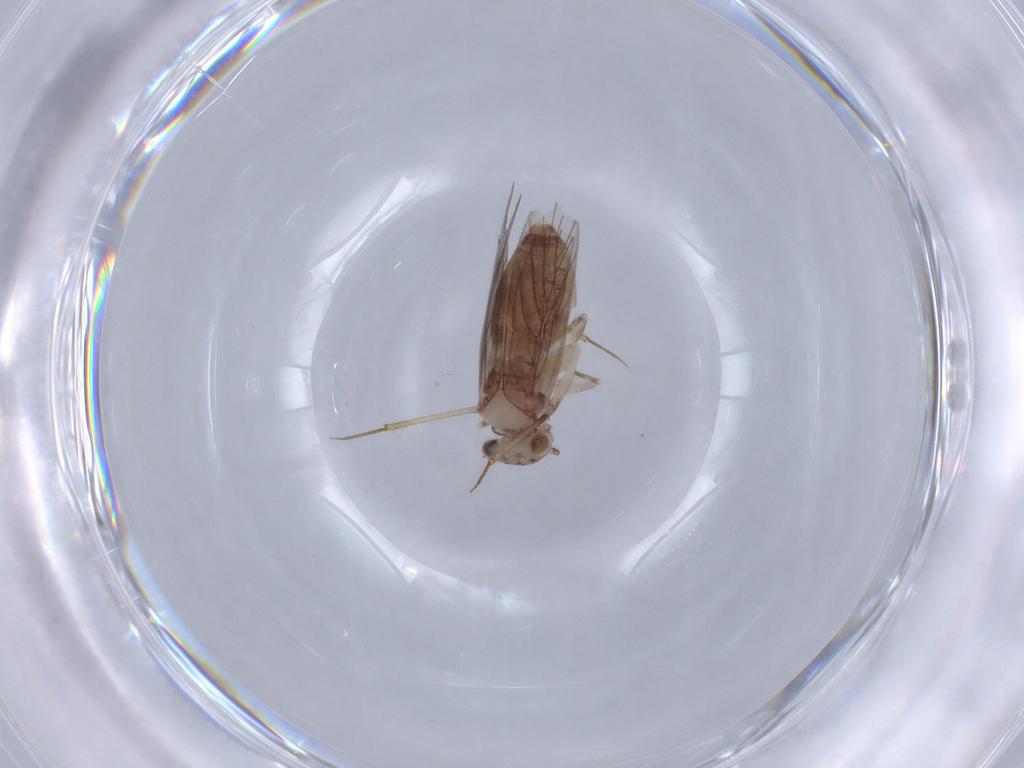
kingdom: Animalia
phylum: Arthropoda
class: Insecta
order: Psocodea
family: Lepidopsocidae
